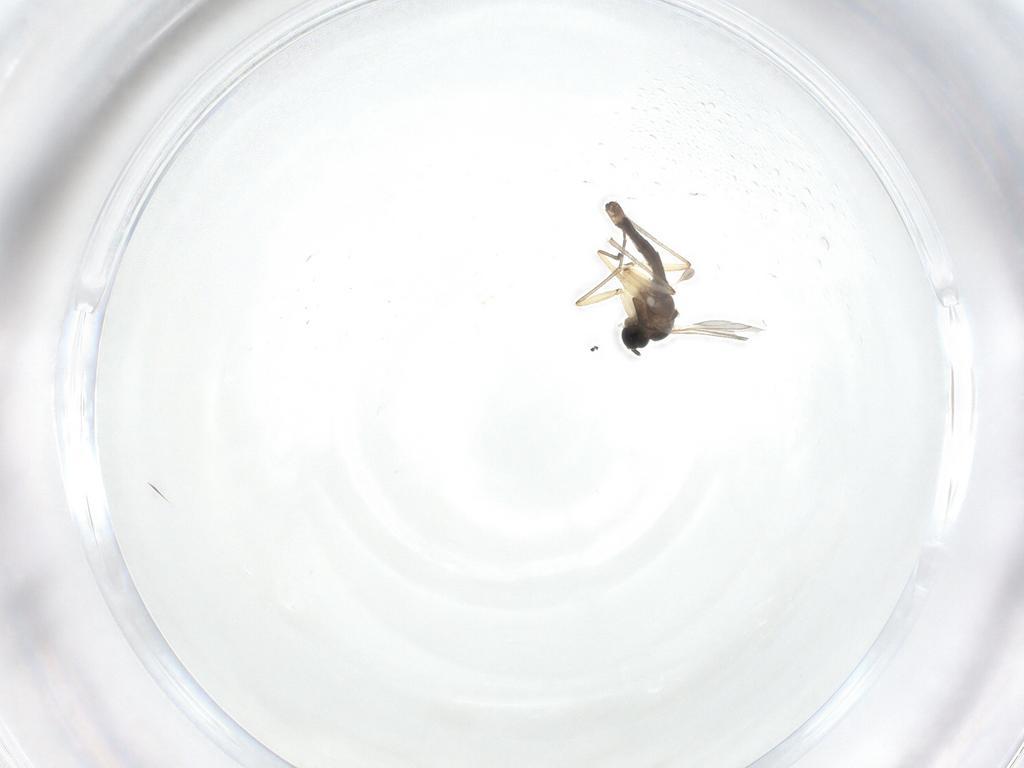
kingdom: Animalia
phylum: Arthropoda
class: Insecta
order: Diptera
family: Sciaridae
